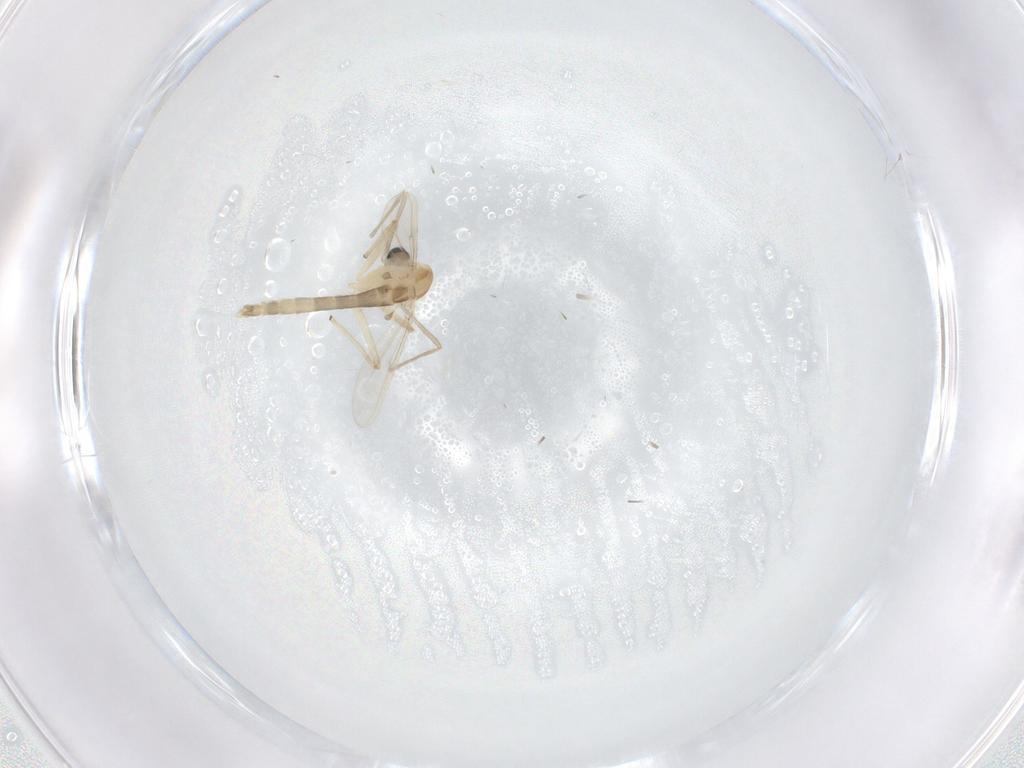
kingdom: Animalia
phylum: Arthropoda
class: Insecta
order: Diptera
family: Chironomidae
